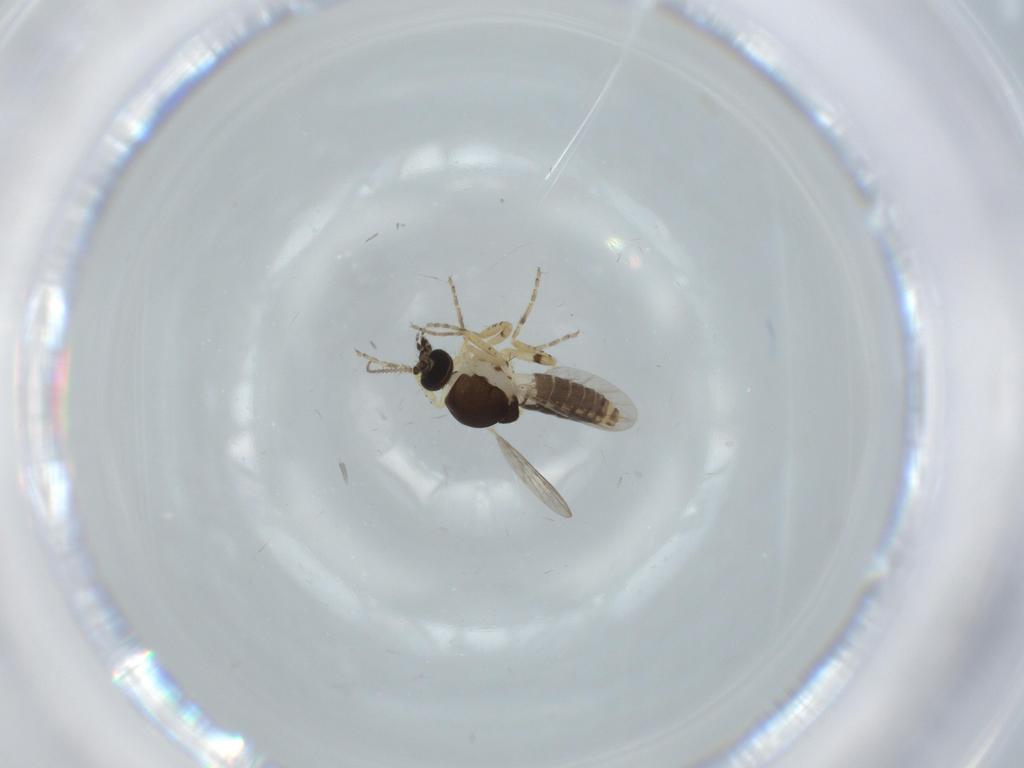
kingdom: Animalia
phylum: Arthropoda
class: Insecta
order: Diptera
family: Ceratopogonidae
